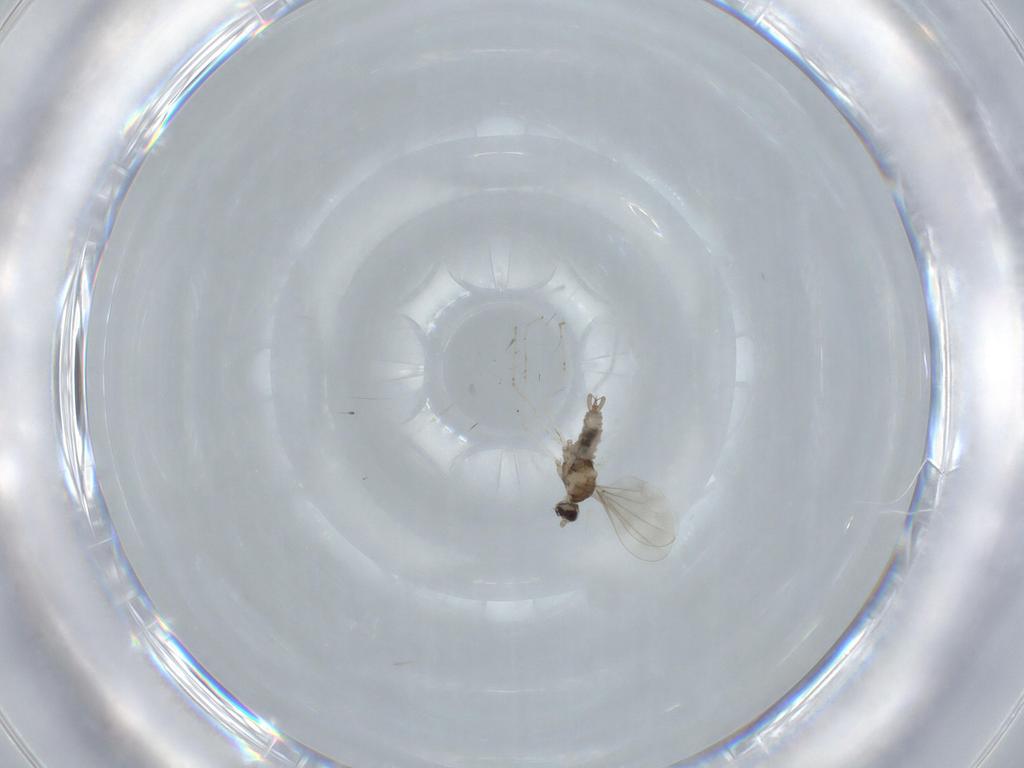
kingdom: Animalia
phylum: Arthropoda
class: Insecta
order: Diptera
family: Cecidomyiidae
